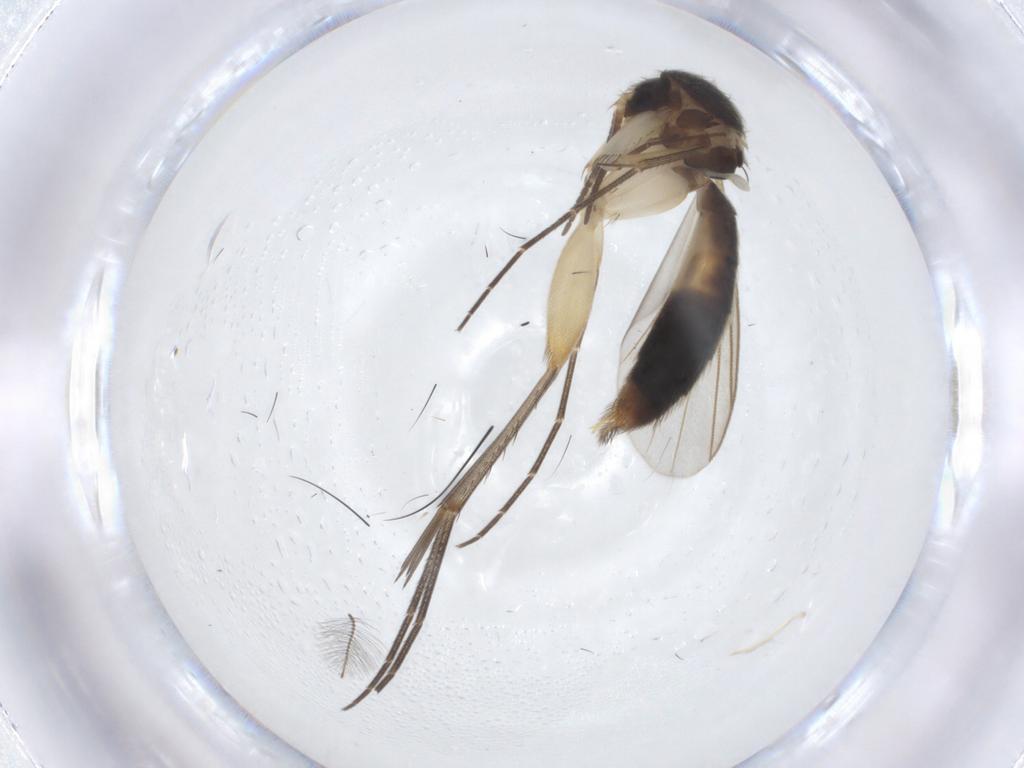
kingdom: Animalia
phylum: Arthropoda
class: Insecta
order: Diptera
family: Mycetophilidae
